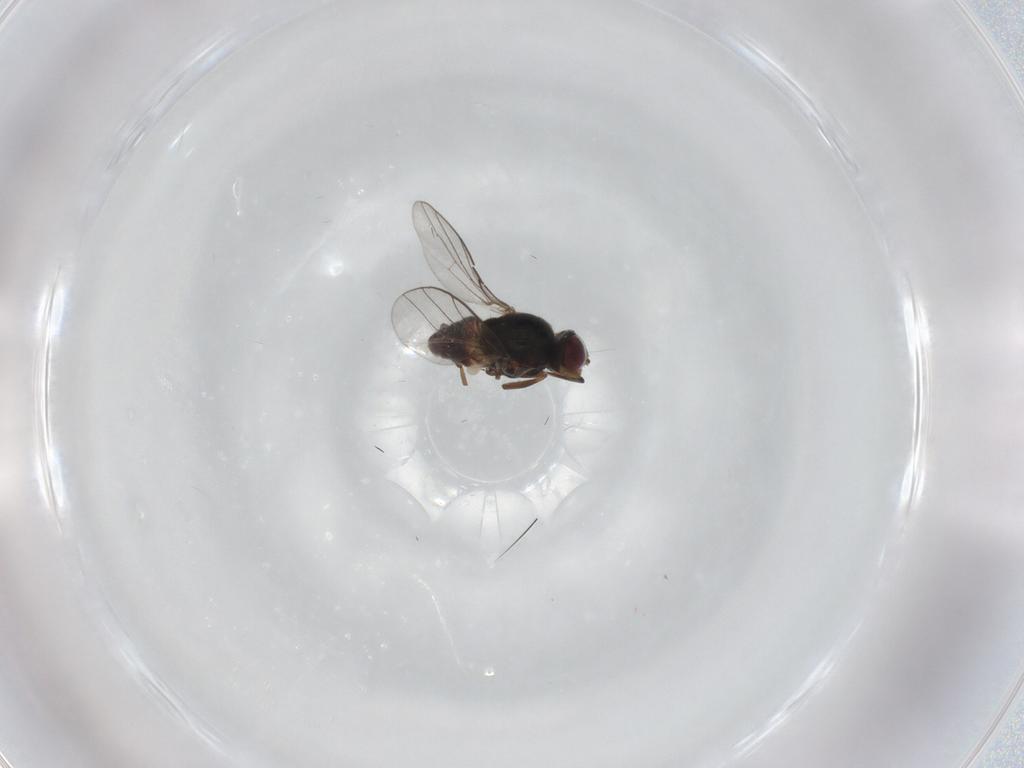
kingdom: Animalia
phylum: Arthropoda
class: Insecta
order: Diptera
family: Chloropidae
